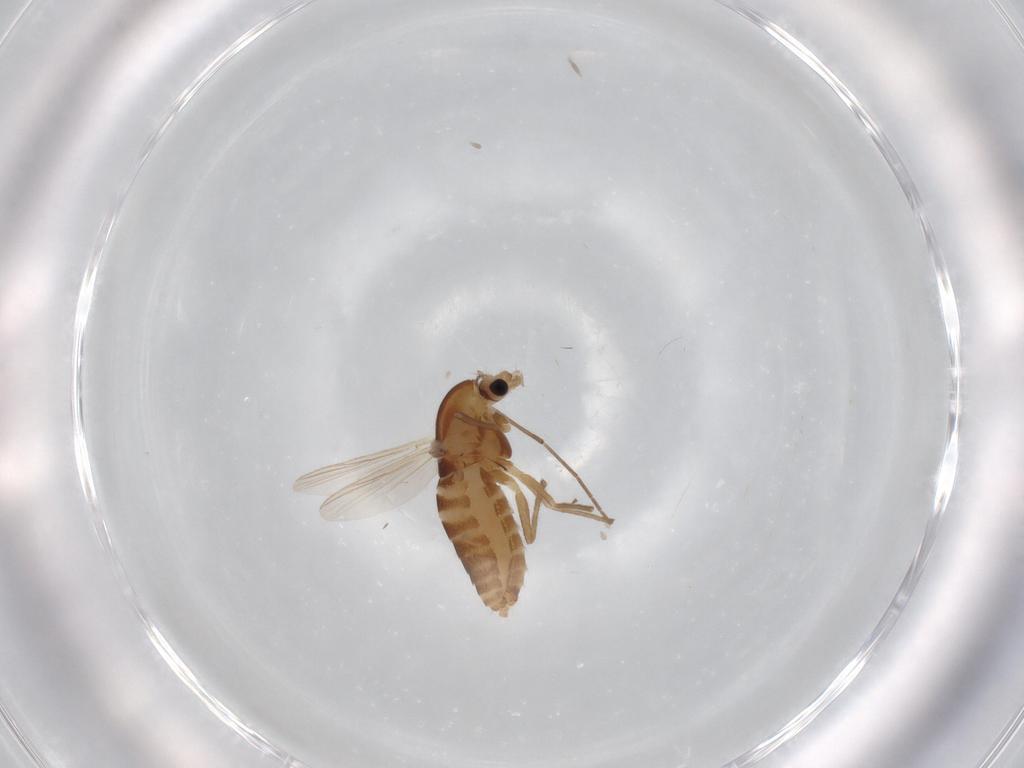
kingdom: Animalia
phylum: Arthropoda
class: Insecta
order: Diptera
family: Chironomidae
